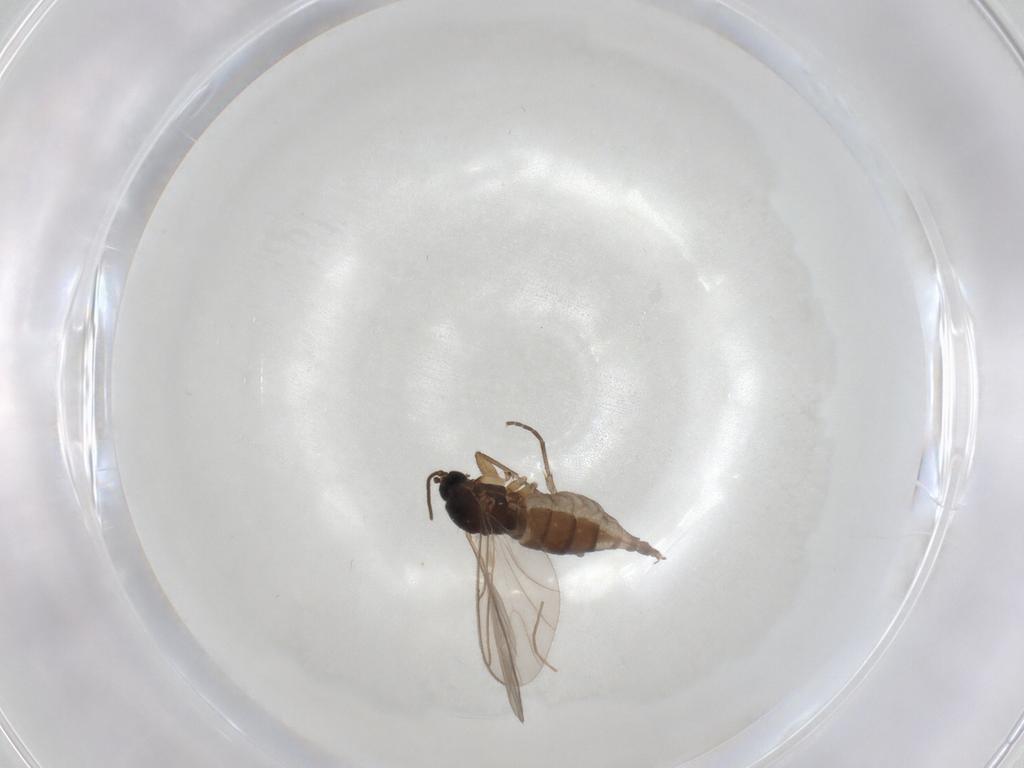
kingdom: Animalia
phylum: Arthropoda
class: Insecta
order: Diptera
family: Sciaridae
